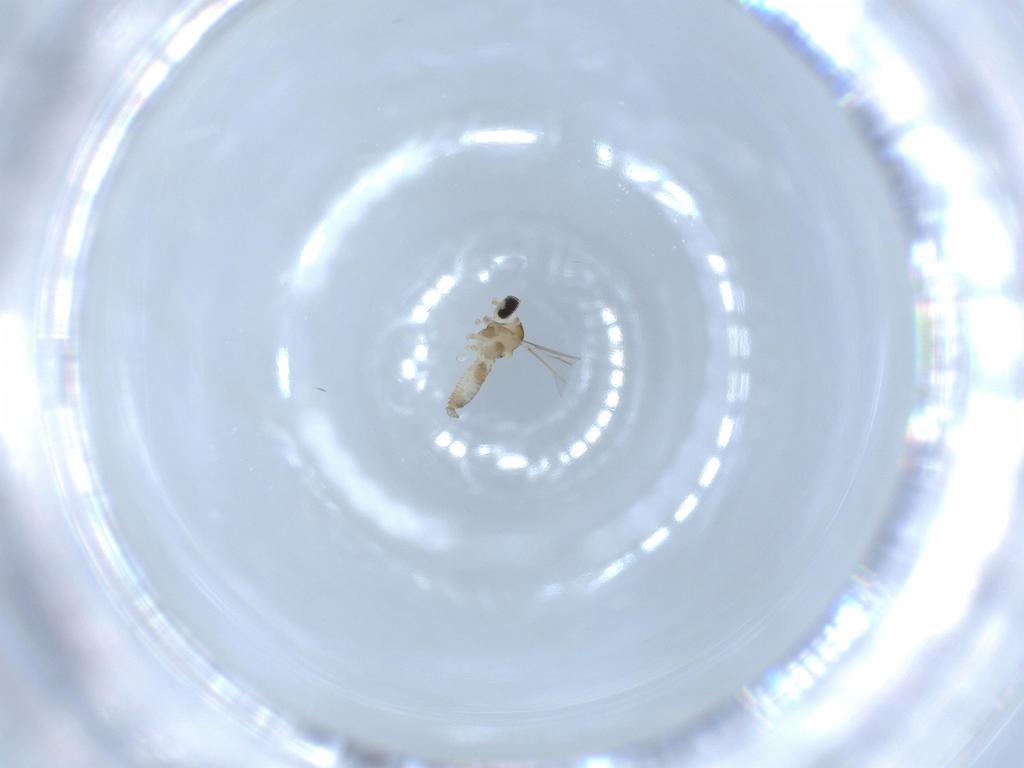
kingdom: Animalia
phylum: Arthropoda
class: Insecta
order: Diptera
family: Cecidomyiidae
